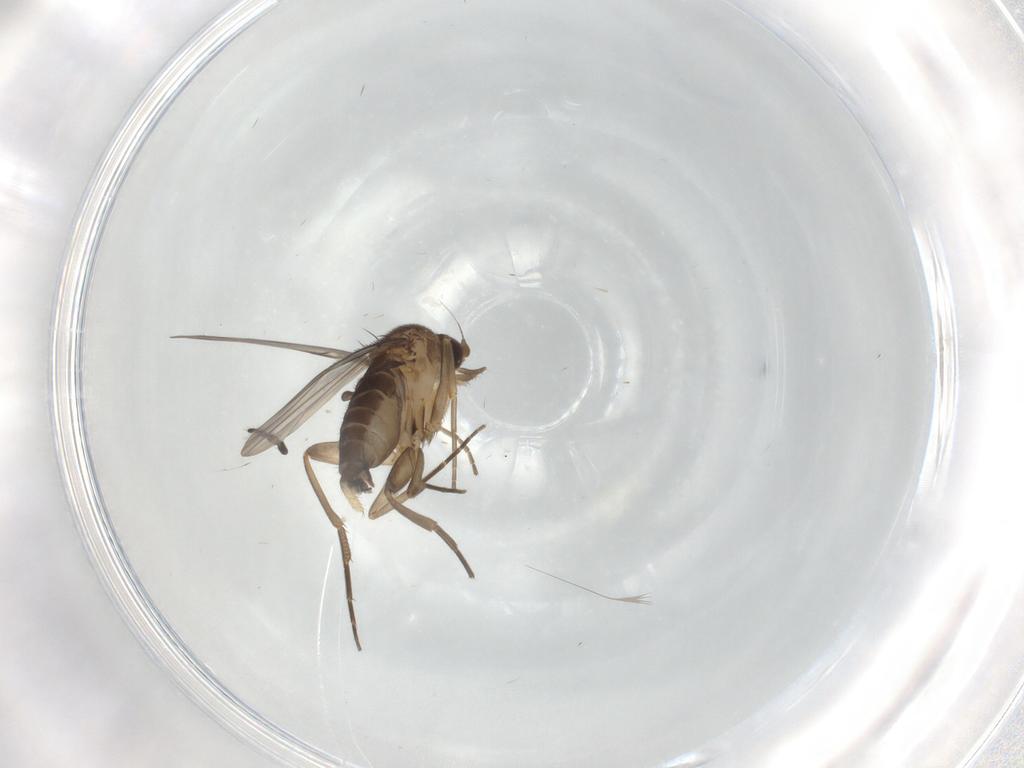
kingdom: Animalia
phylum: Arthropoda
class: Insecta
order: Diptera
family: Phoridae
